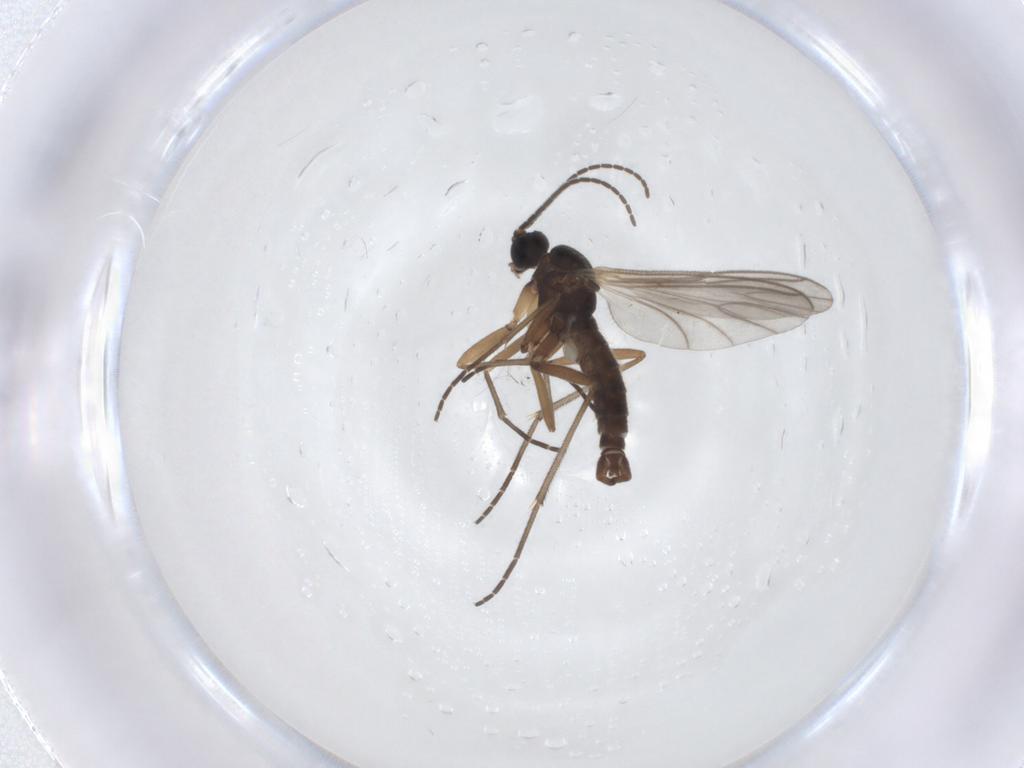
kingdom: Animalia
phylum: Arthropoda
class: Insecta
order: Diptera
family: Sciaridae
